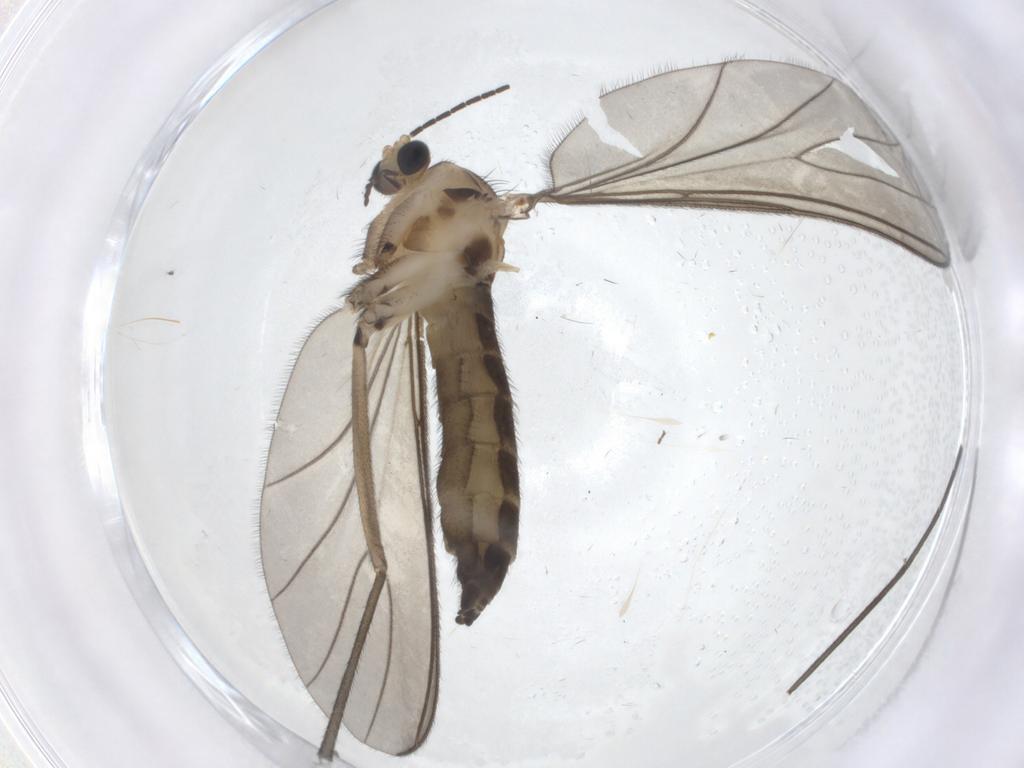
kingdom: Animalia
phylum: Arthropoda
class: Insecta
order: Diptera
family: Sciaridae
